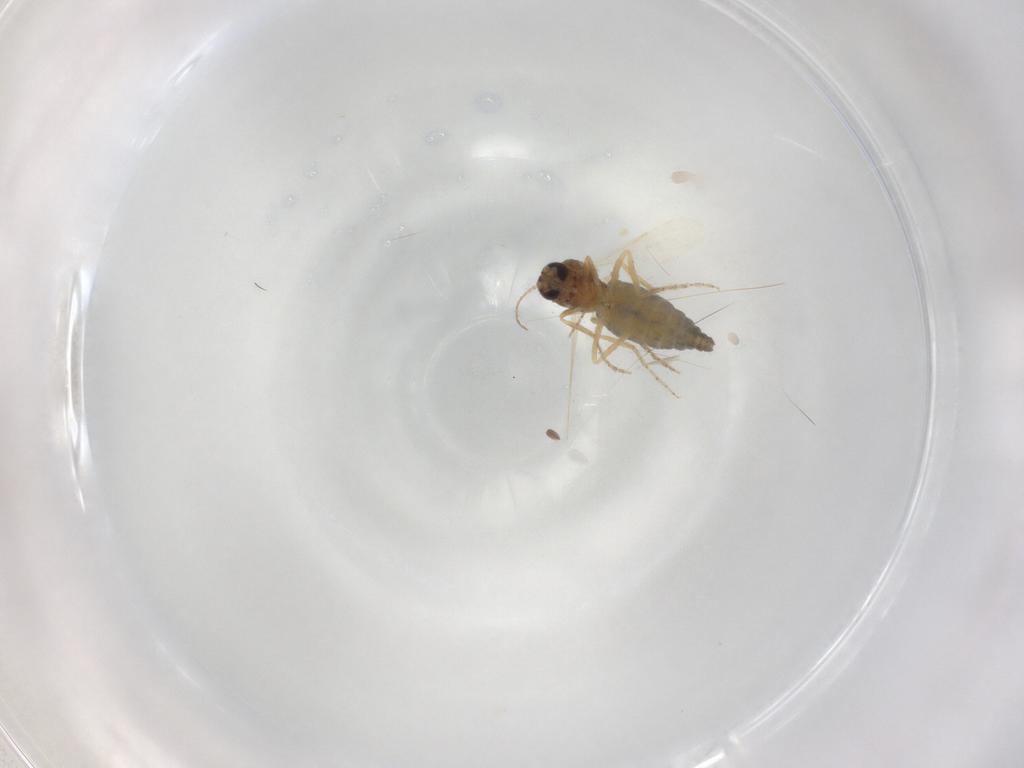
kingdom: Animalia
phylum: Arthropoda
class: Insecta
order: Diptera
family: Ceratopogonidae
